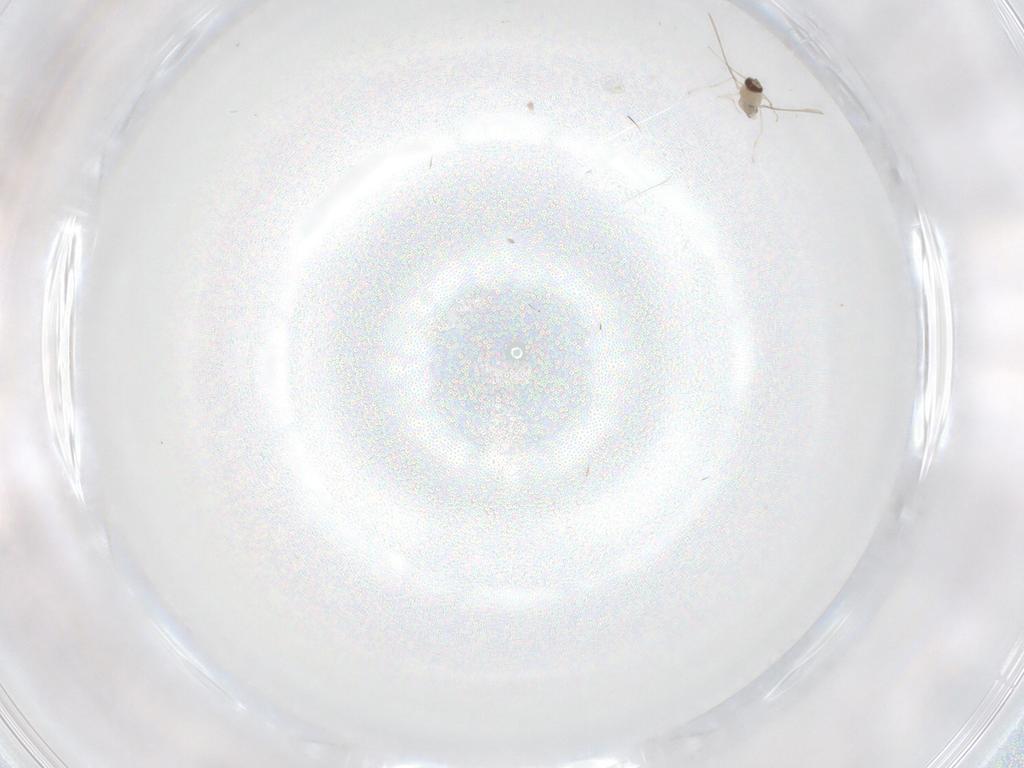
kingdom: Animalia
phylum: Arthropoda
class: Insecta
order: Diptera
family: Cecidomyiidae
